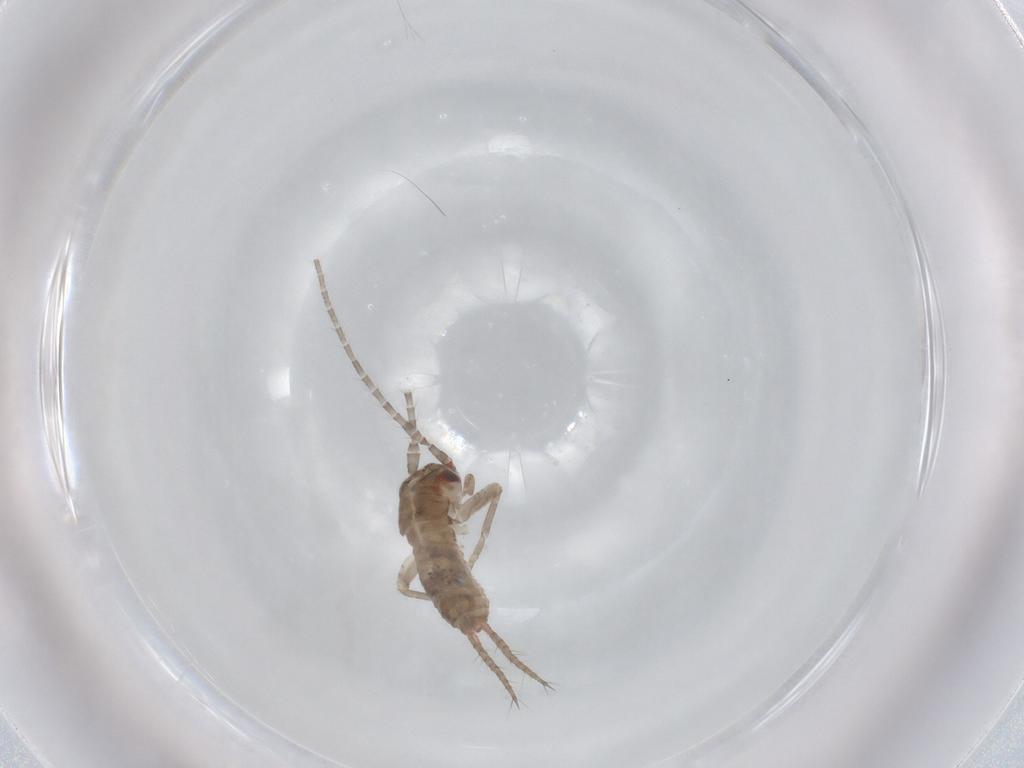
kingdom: Animalia
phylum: Arthropoda
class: Insecta
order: Orthoptera
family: Mogoplistidae
